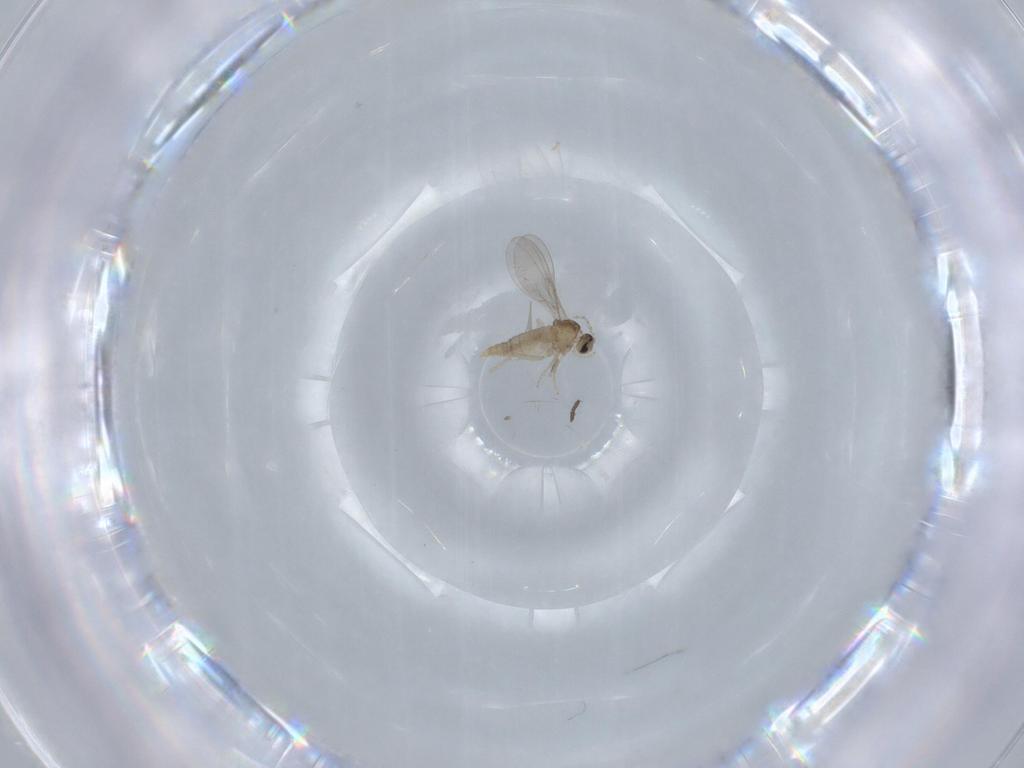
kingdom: Animalia
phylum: Arthropoda
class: Insecta
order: Diptera
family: Cecidomyiidae
